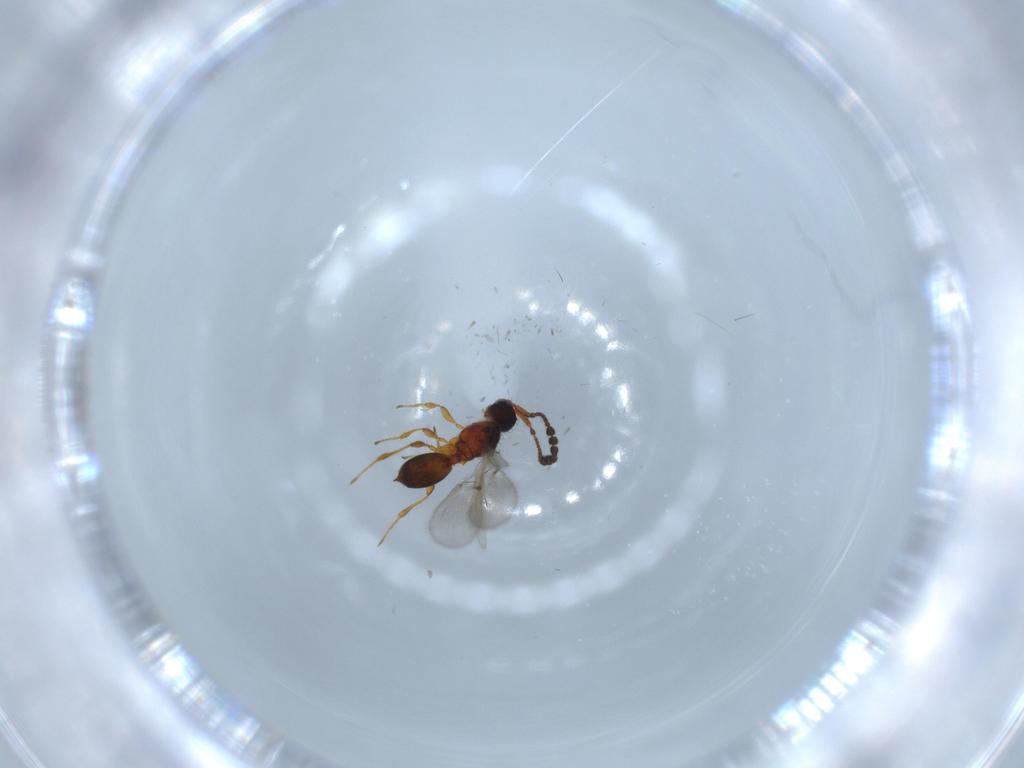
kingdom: Animalia
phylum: Arthropoda
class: Insecta
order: Hymenoptera
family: Diapriidae
